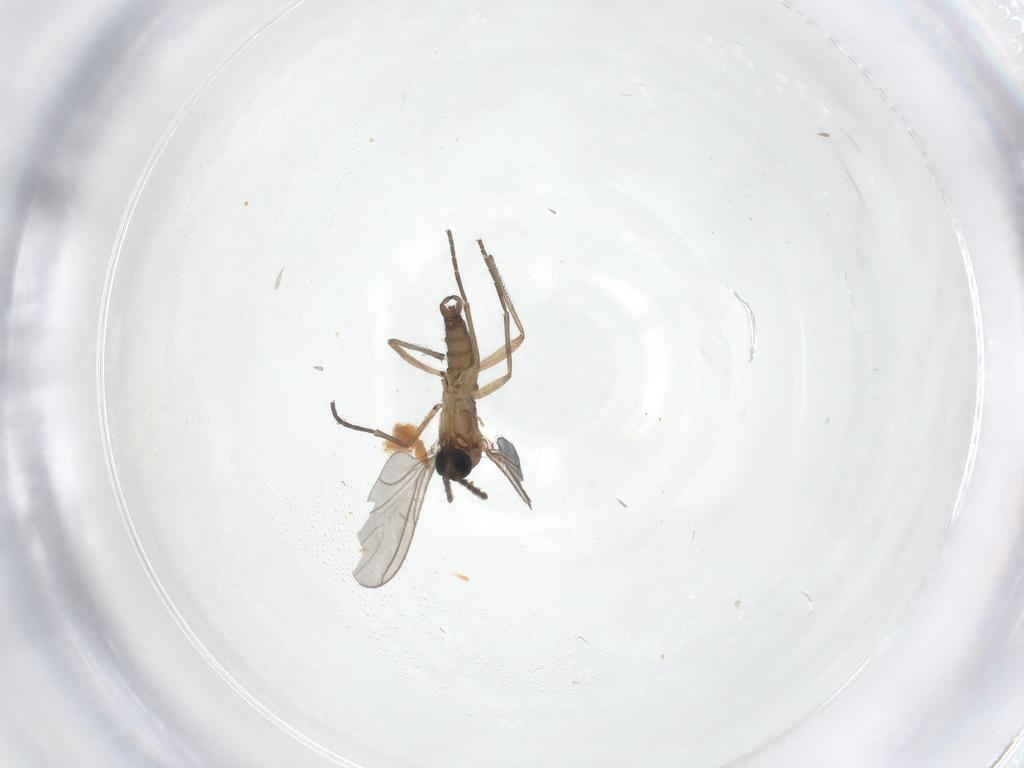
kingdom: Animalia
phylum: Arthropoda
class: Insecta
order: Diptera
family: Sciaridae
